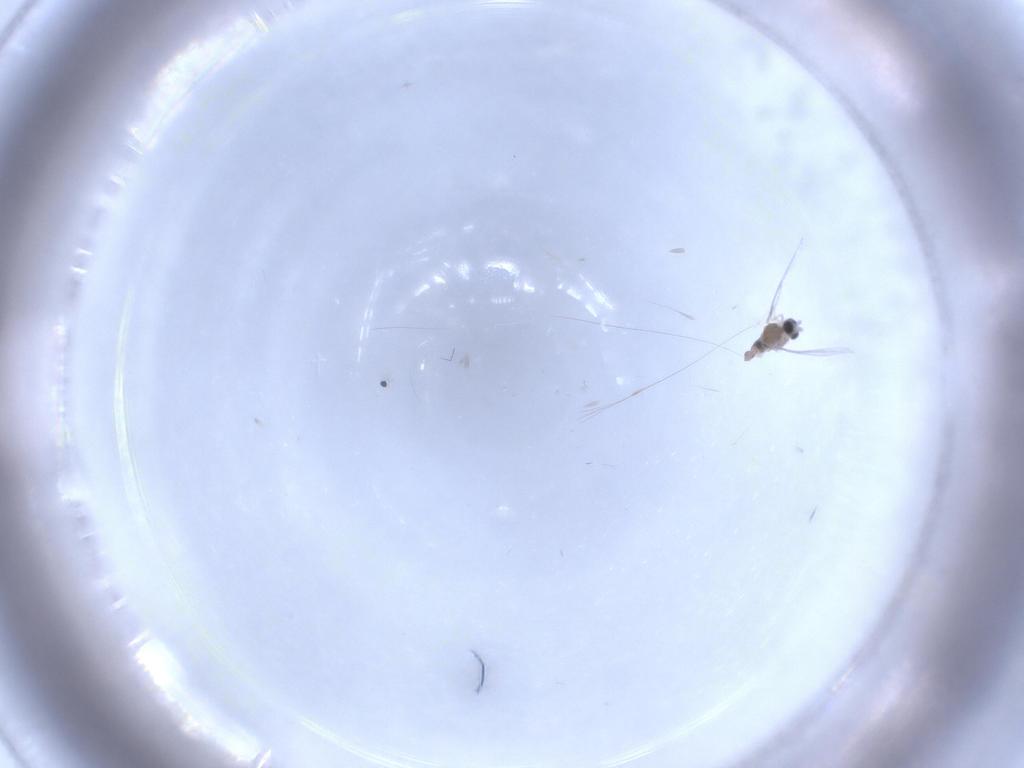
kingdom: Animalia
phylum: Arthropoda
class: Insecta
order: Diptera
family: Cecidomyiidae
